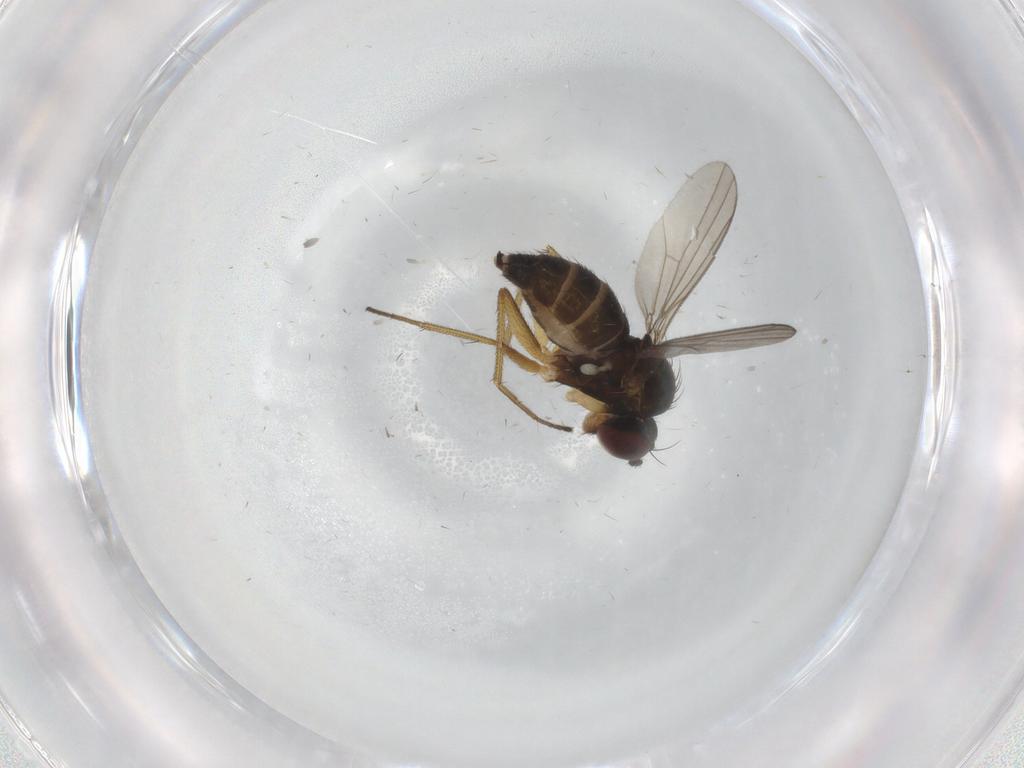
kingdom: Animalia
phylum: Arthropoda
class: Insecta
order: Diptera
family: Dolichopodidae
